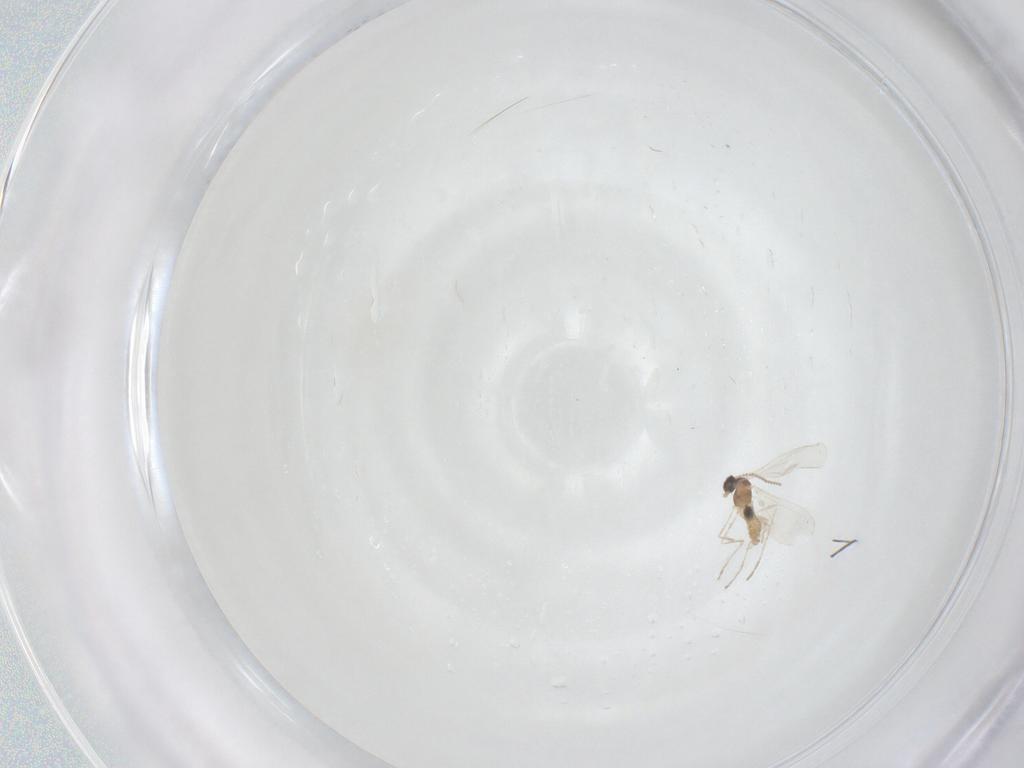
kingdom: Animalia
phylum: Arthropoda
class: Insecta
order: Diptera
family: Cecidomyiidae
